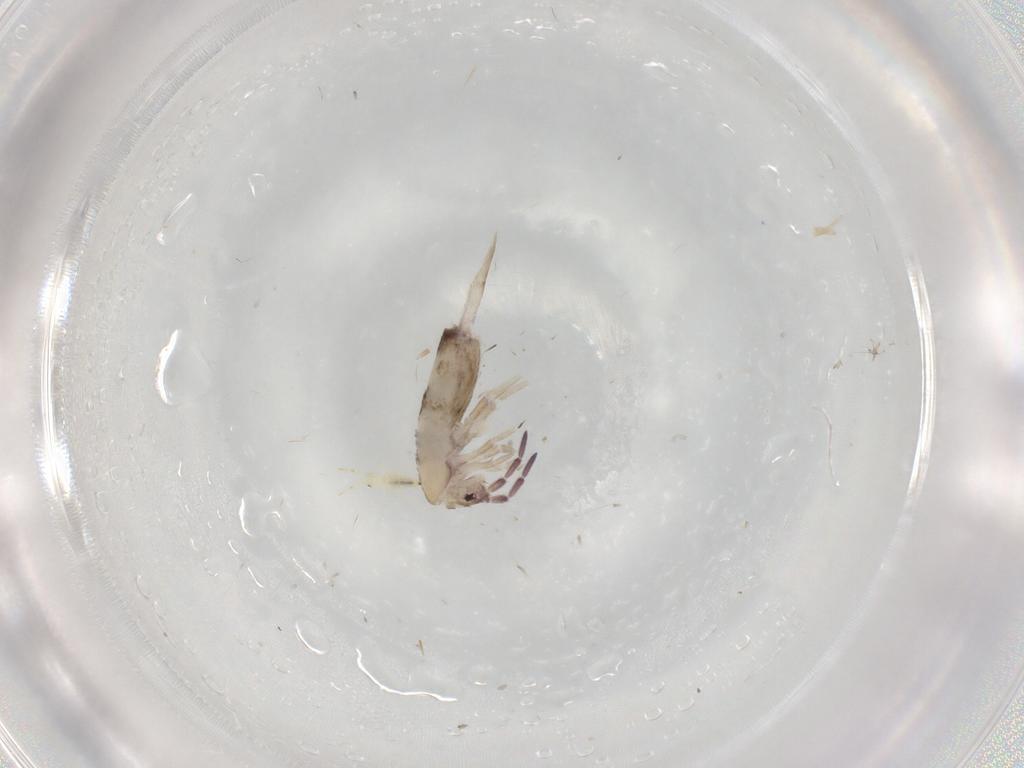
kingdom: Animalia
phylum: Arthropoda
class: Collembola
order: Entomobryomorpha
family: Entomobryidae
